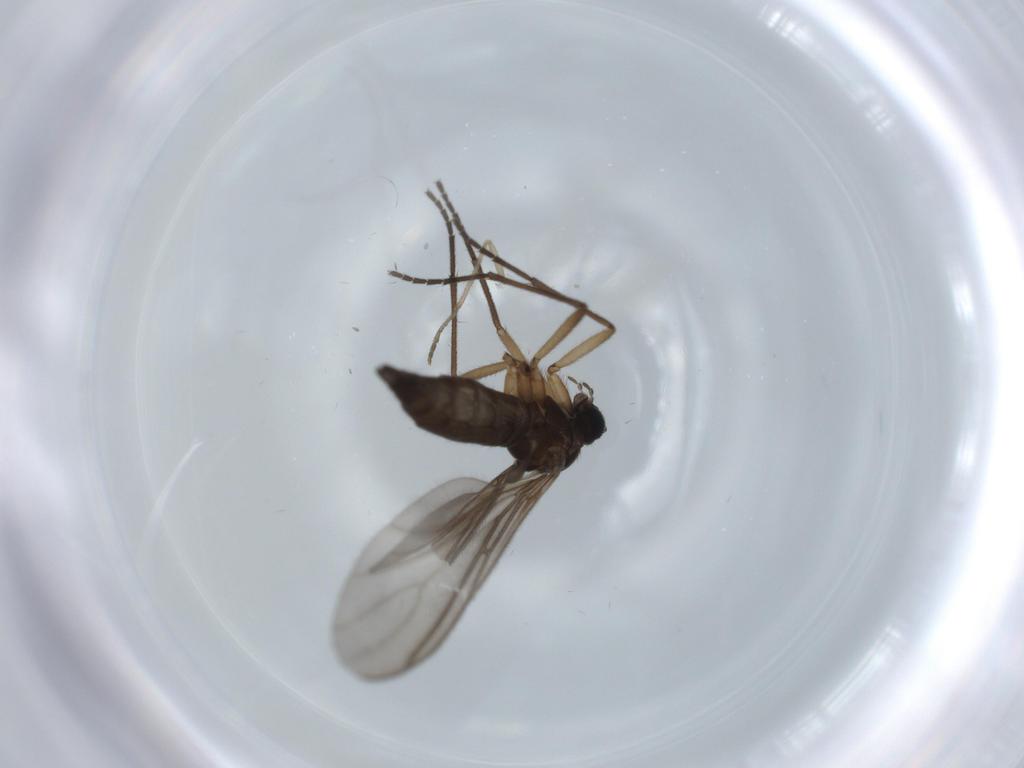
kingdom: Animalia
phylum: Arthropoda
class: Insecta
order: Diptera
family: Sciaridae
